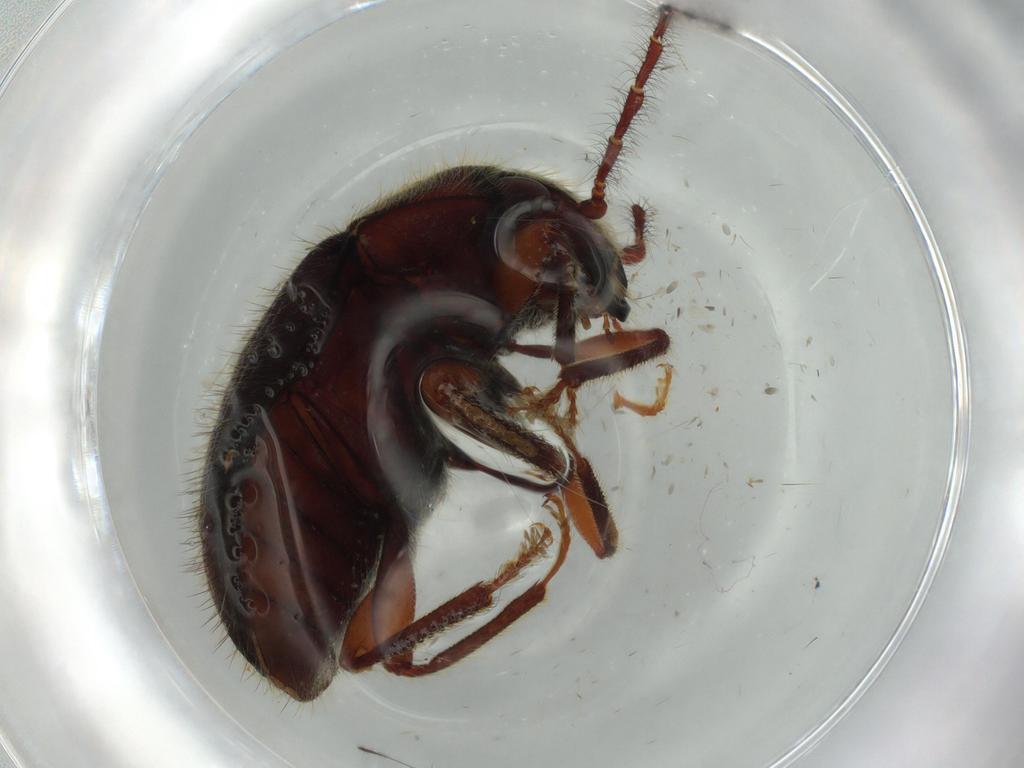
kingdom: Animalia
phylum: Arthropoda
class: Insecta
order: Coleoptera
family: Artematopodidae
